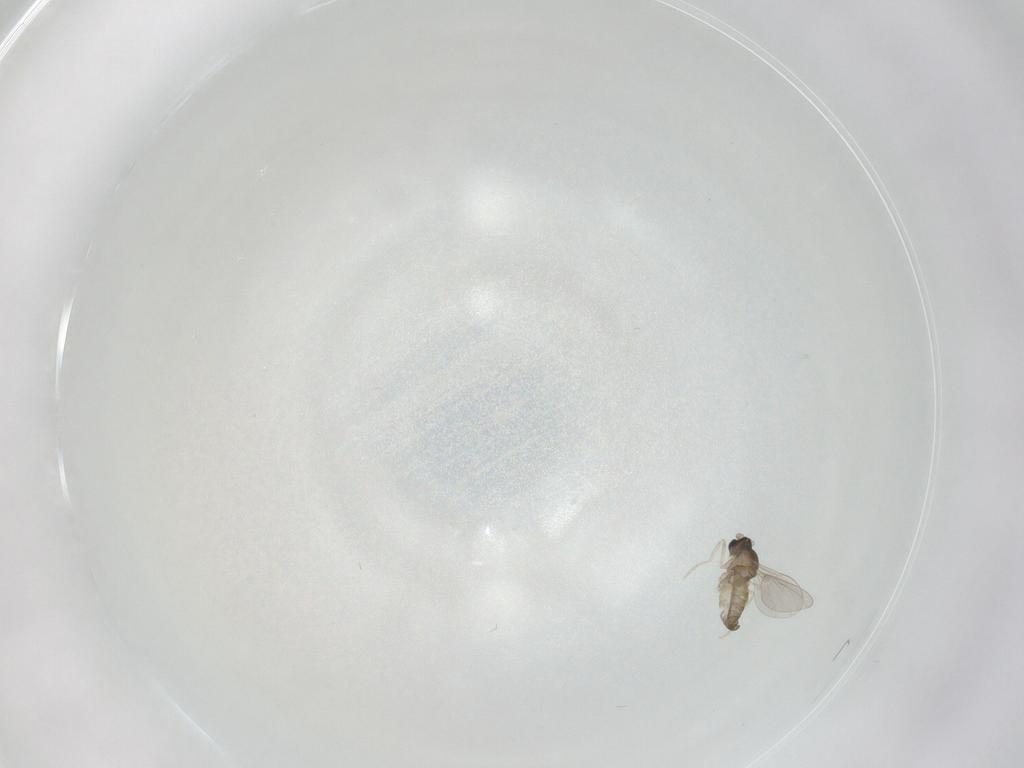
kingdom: Animalia
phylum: Arthropoda
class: Insecta
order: Diptera
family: Cecidomyiidae
